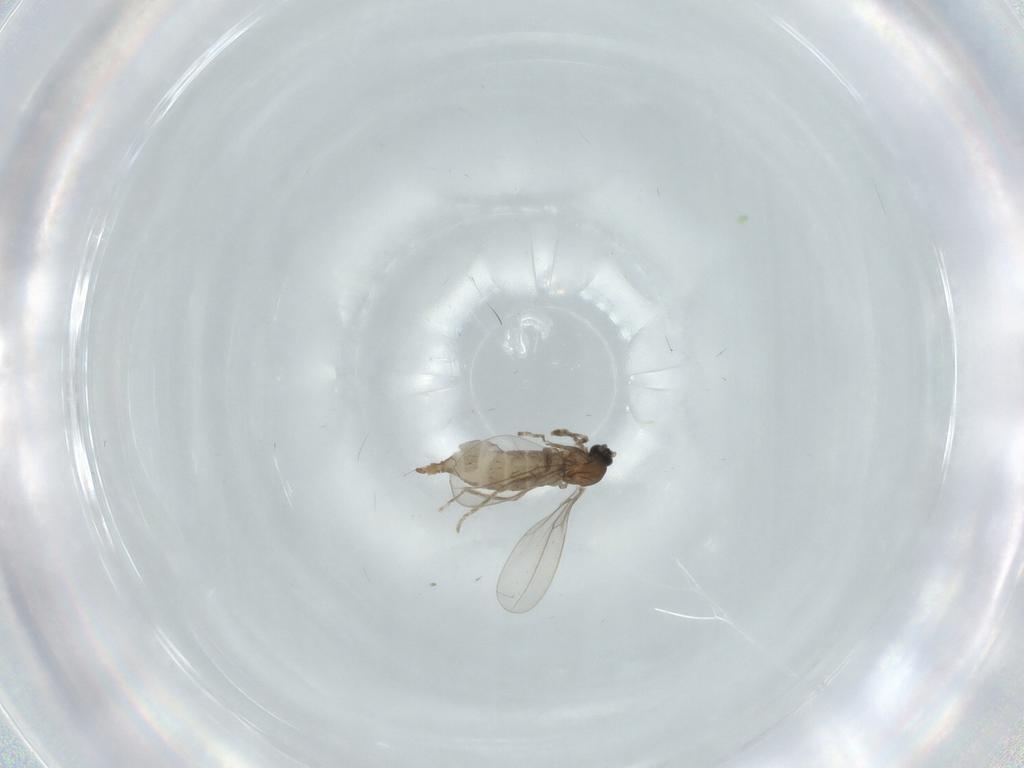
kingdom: Animalia
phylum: Arthropoda
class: Insecta
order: Diptera
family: Cecidomyiidae
